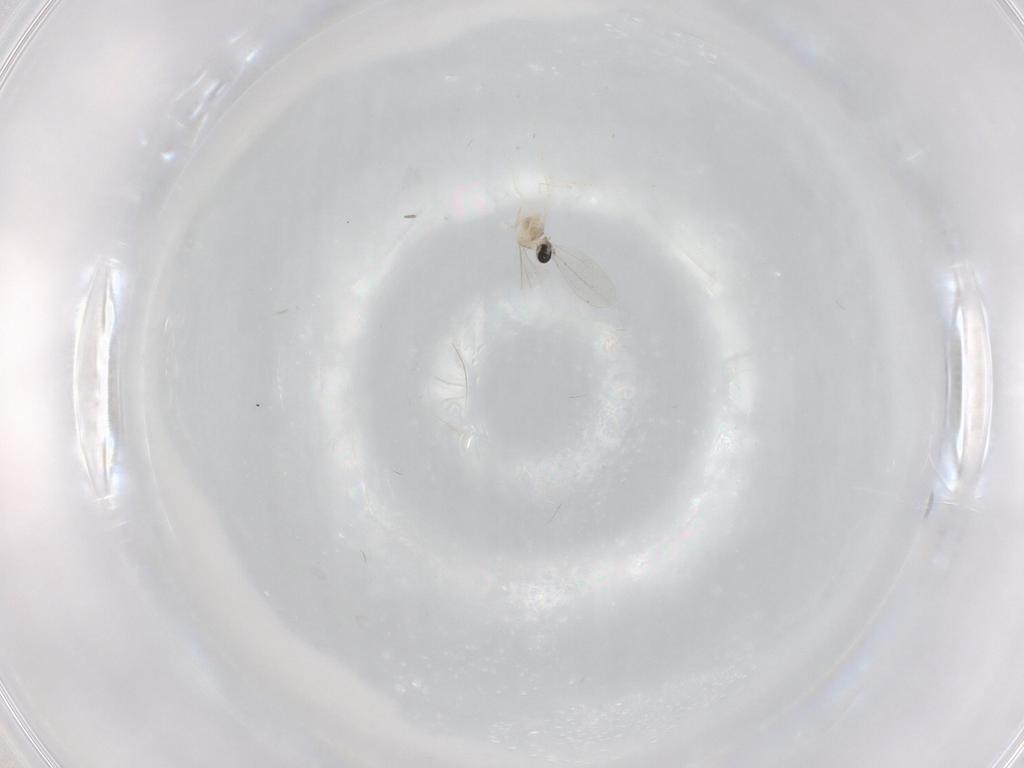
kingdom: Animalia
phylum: Arthropoda
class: Insecta
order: Diptera
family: Cecidomyiidae
